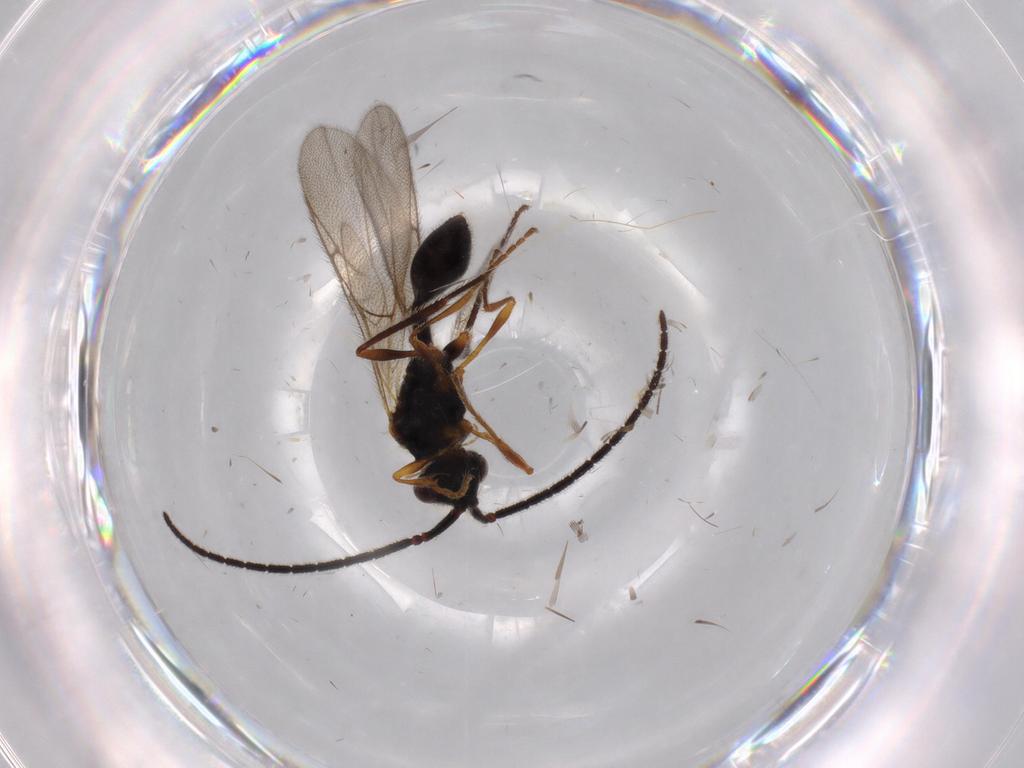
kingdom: Animalia
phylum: Arthropoda
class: Insecta
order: Hymenoptera
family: Diapriidae
